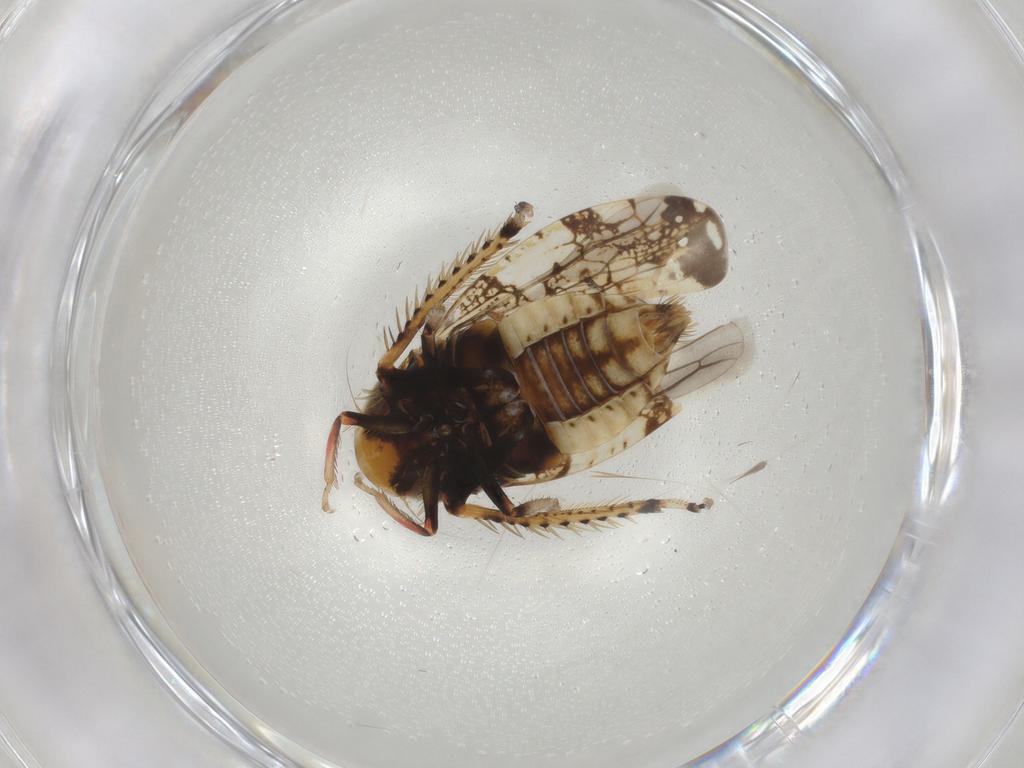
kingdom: Animalia
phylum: Arthropoda
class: Insecta
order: Hemiptera
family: Cicadellidae
